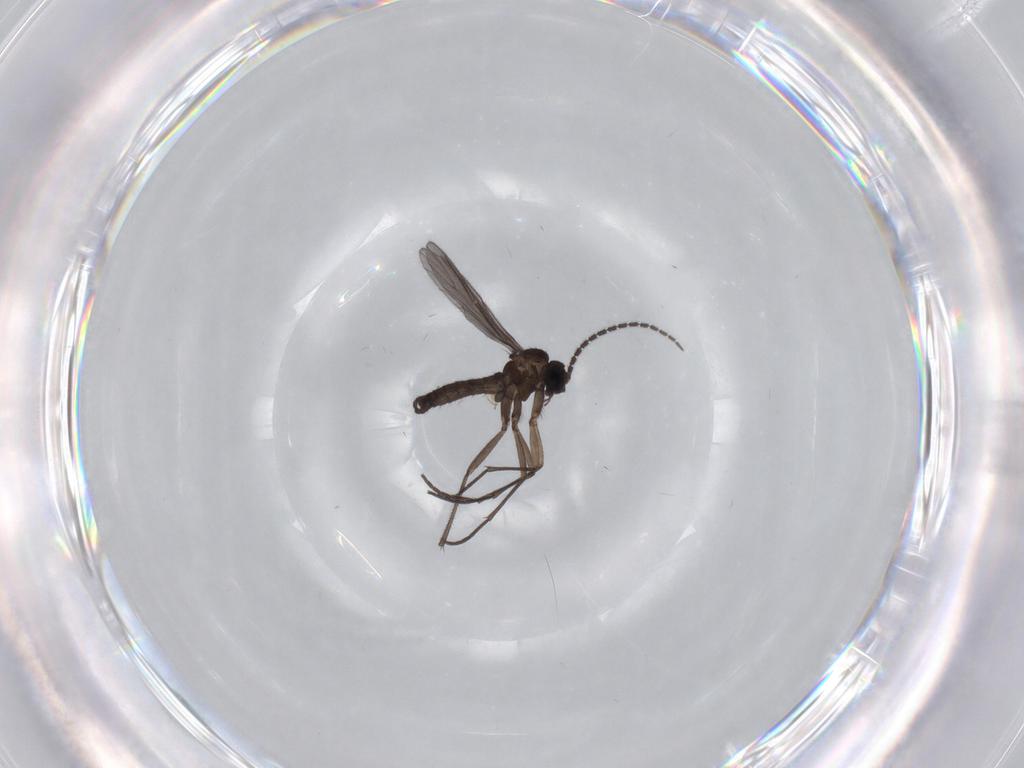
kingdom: Animalia
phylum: Arthropoda
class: Insecta
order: Diptera
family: Sciaridae
